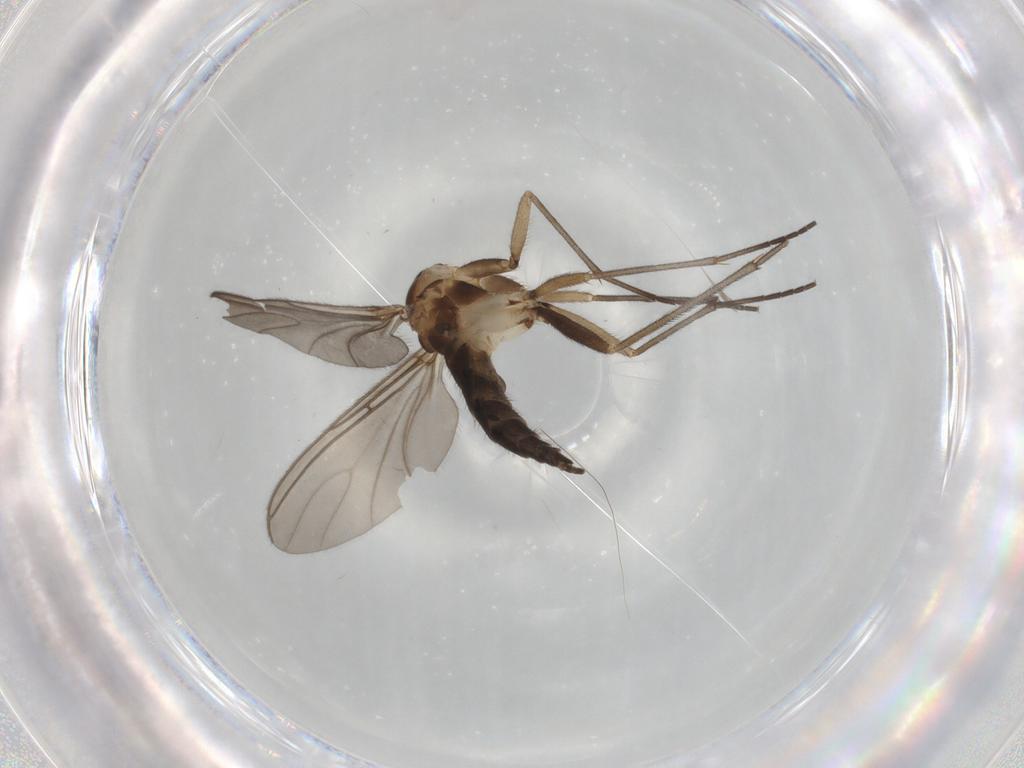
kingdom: Animalia
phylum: Arthropoda
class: Insecta
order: Diptera
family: Sciaridae
